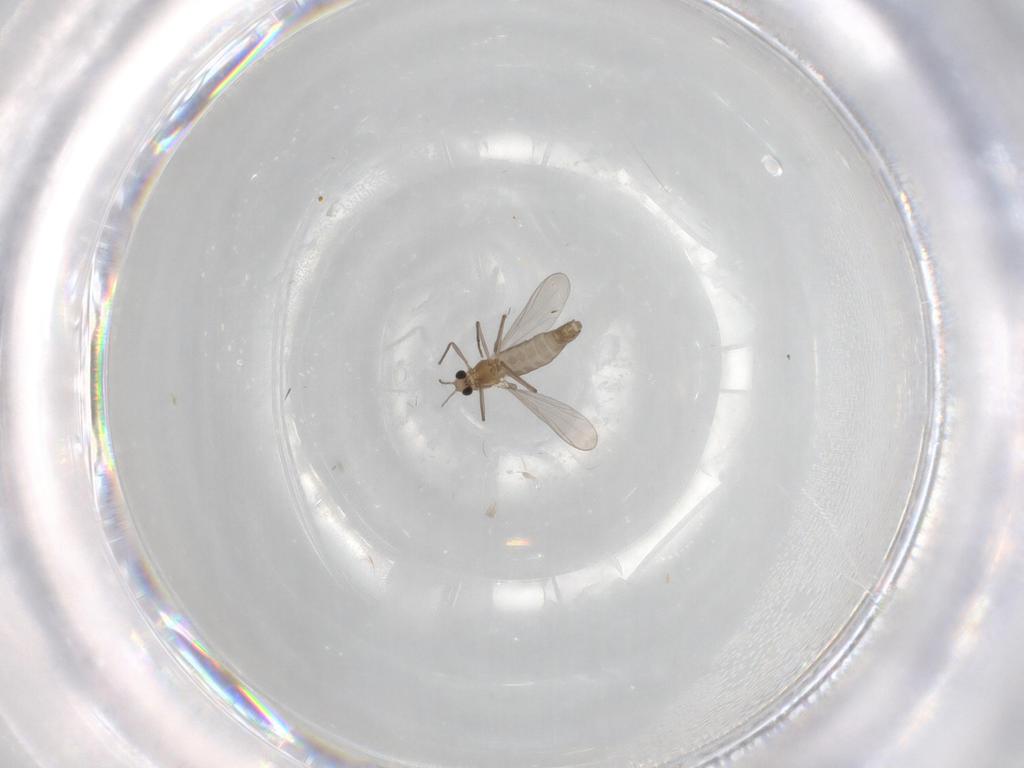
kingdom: Animalia
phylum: Arthropoda
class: Insecta
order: Diptera
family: Chironomidae
